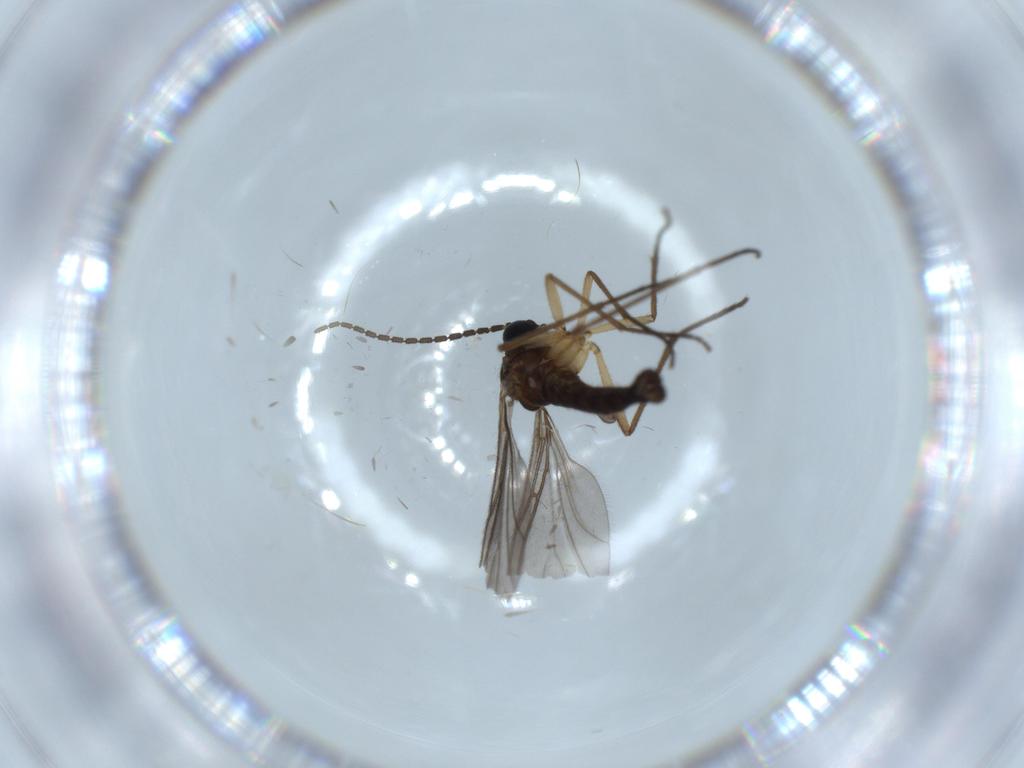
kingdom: Animalia
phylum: Arthropoda
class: Insecta
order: Diptera
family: Sciaridae
